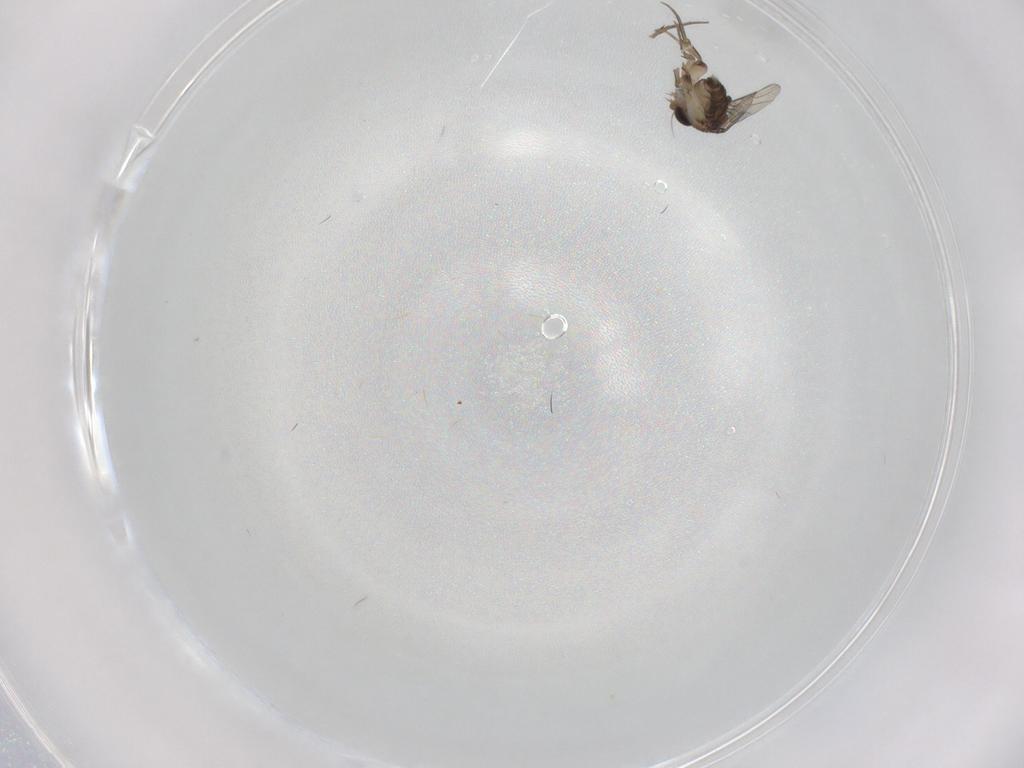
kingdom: Animalia
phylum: Arthropoda
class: Insecta
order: Diptera
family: Phoridae
